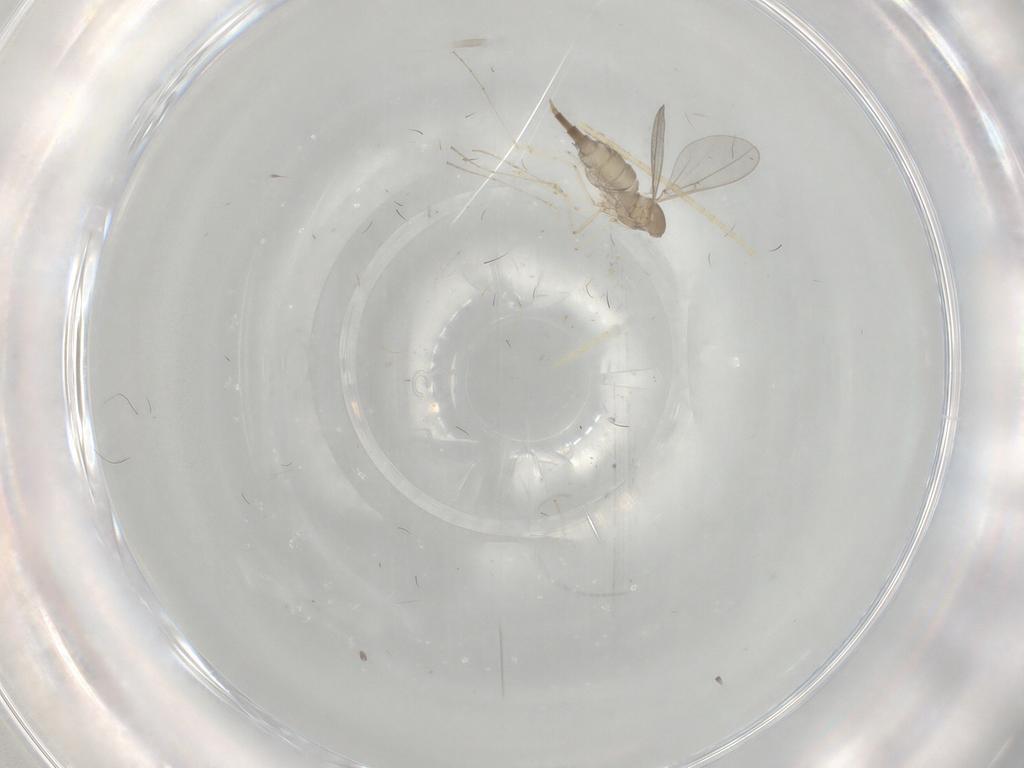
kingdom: Animalia
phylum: Arthropoda
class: Insecta
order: Diptera
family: Cecidomyiidae
